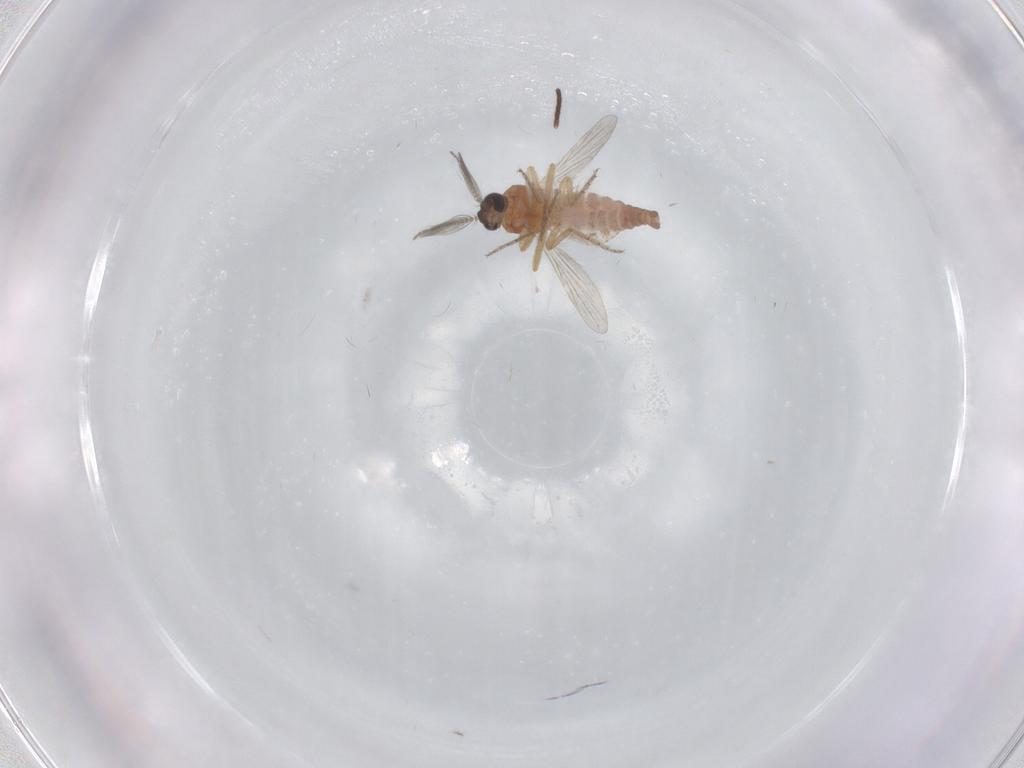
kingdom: Animalia
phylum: Arthropoda
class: Insecta
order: Diptera
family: Ceratopogonidae
